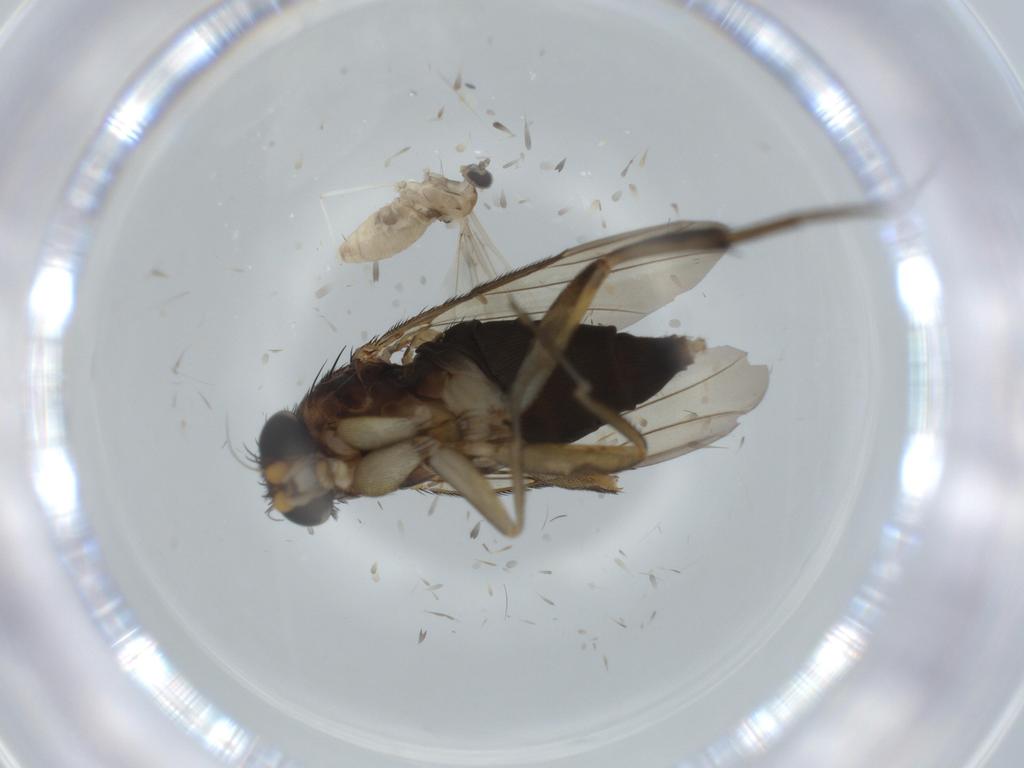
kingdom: Animalia
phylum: Arthropoda
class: Insecta
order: Diptera
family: Phoridae
